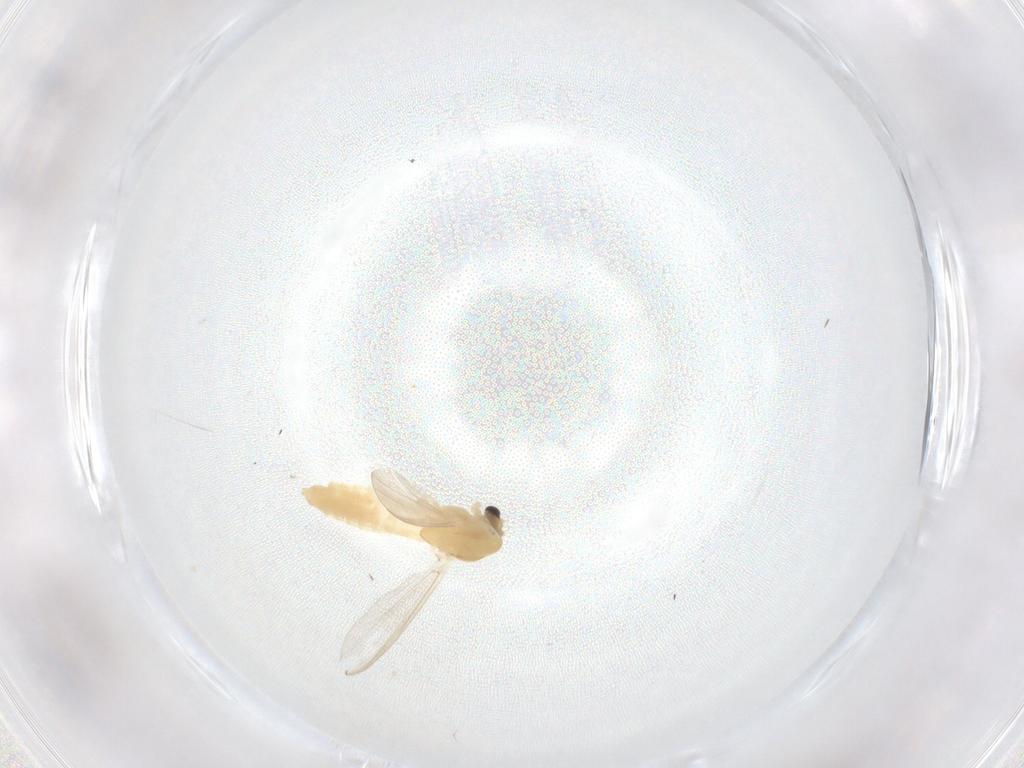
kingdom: Animalia
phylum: Arthropoda
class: Insecta
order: Diptera
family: Chironomidae
